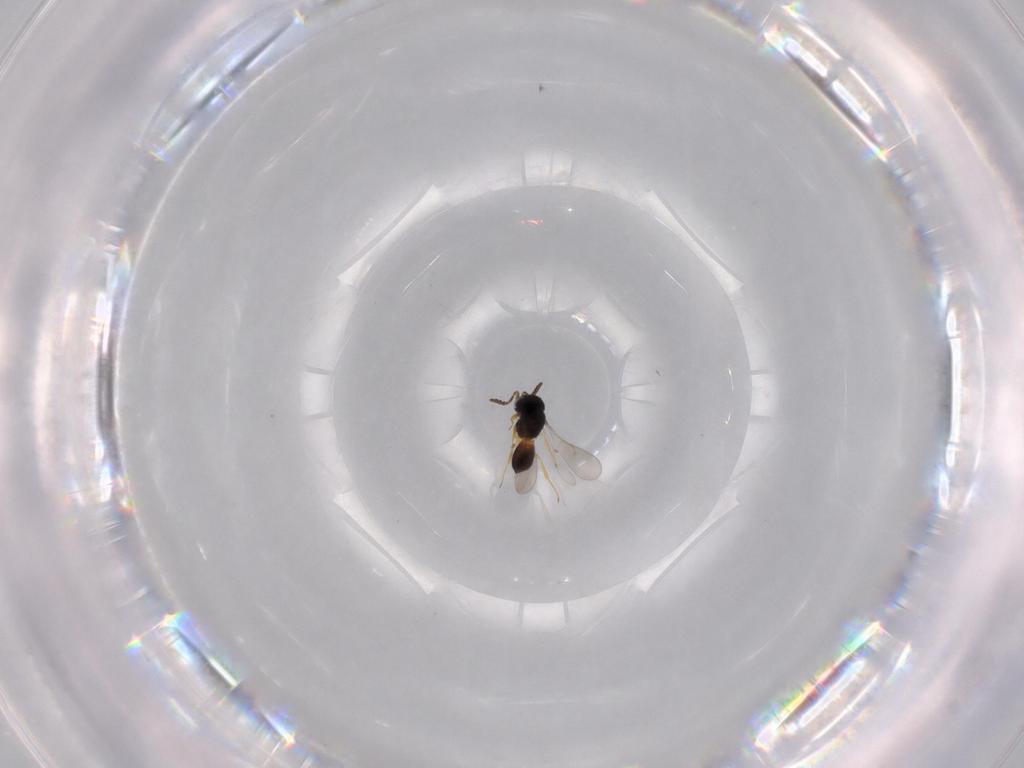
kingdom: Animalia
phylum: Arthropoda
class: Insecta
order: Hymenoptera
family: Scelionidae
